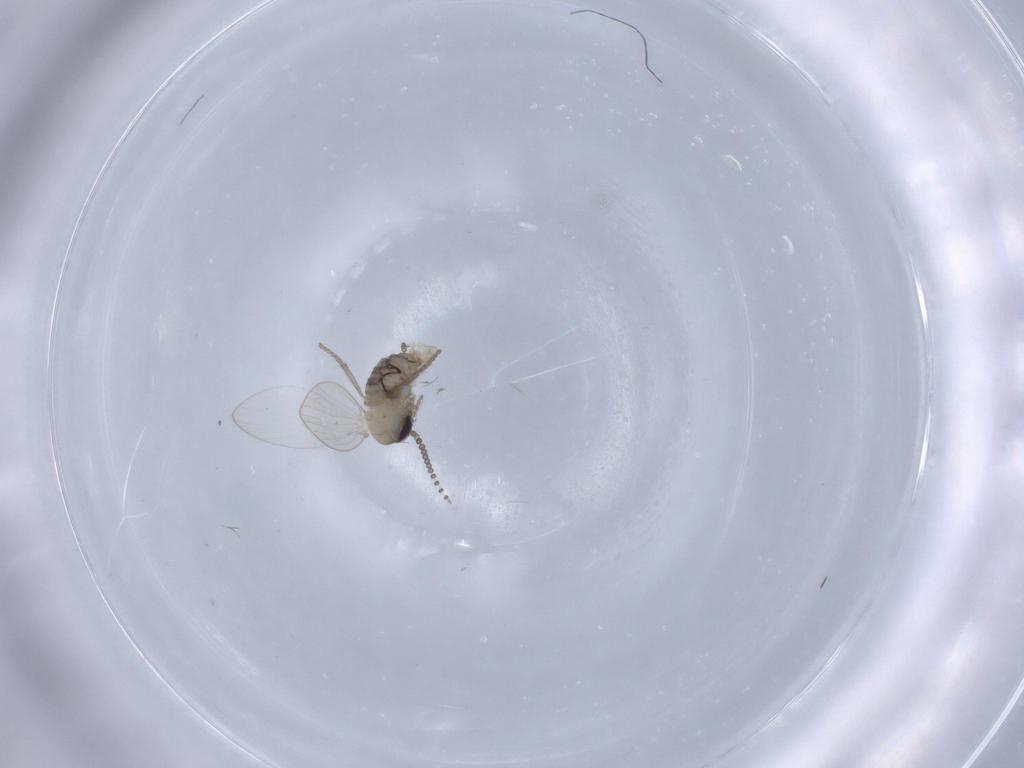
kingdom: Animalia
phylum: Arthropoda
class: Insecta
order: Diptera
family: Psychodidae
